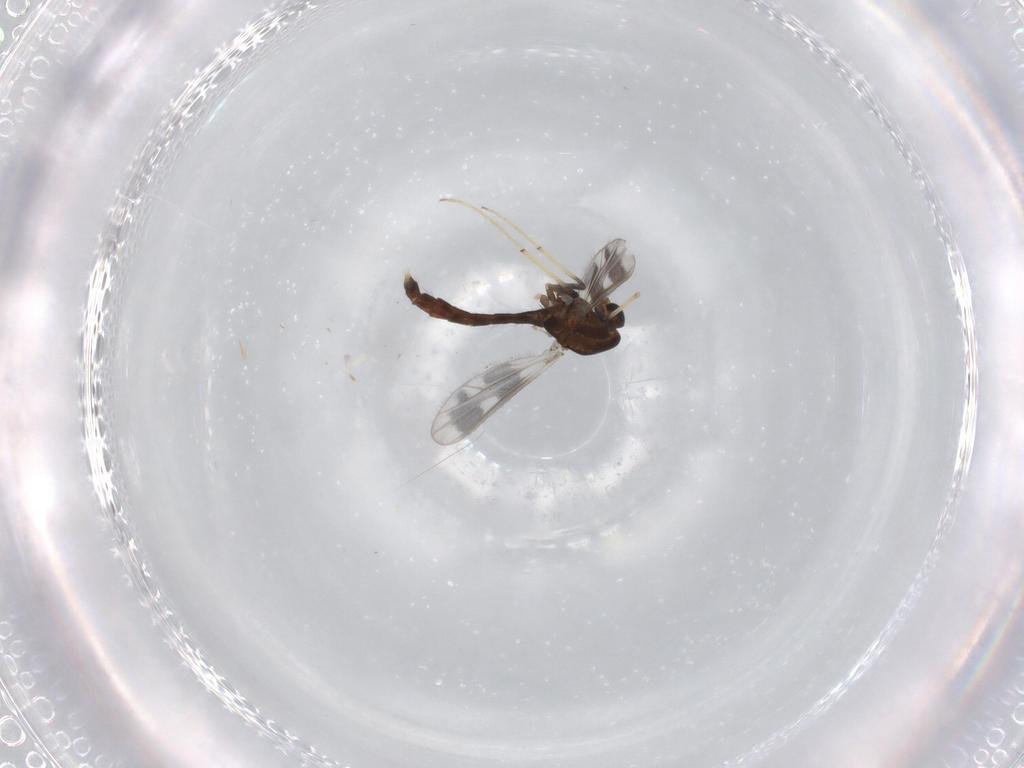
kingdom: Animalia
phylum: Arthropoda
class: Insecta
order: Diptera
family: Chironomidae
